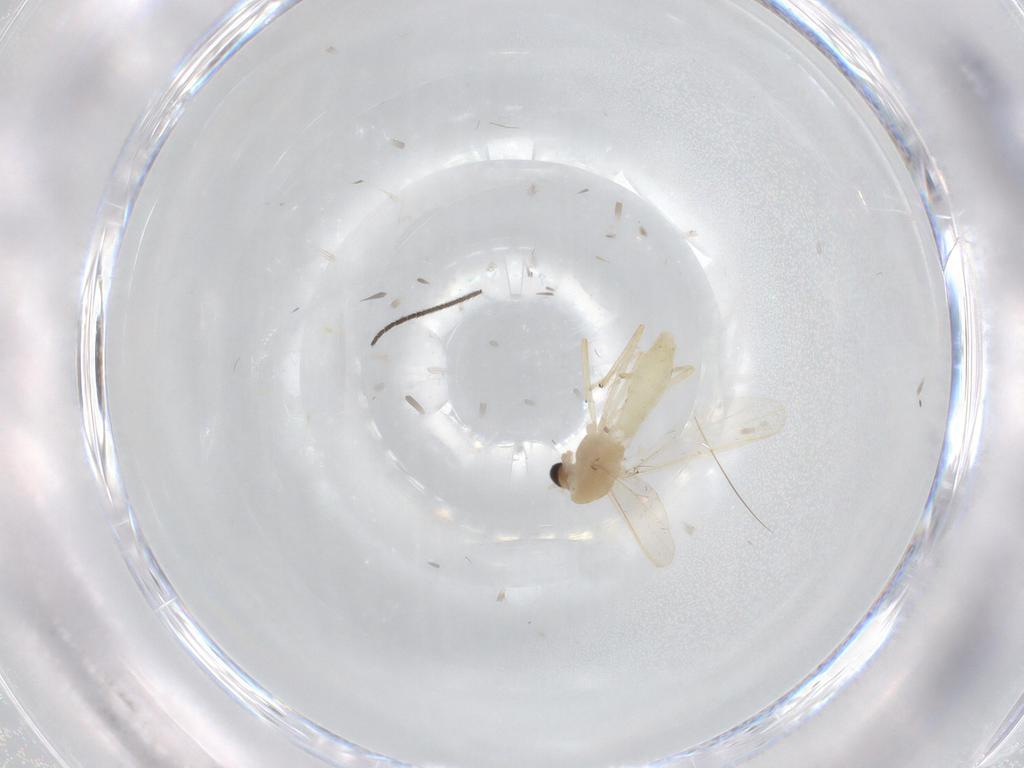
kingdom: Animalia
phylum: Arthropoda
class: Insecta
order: Diptera
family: Chironomidae
